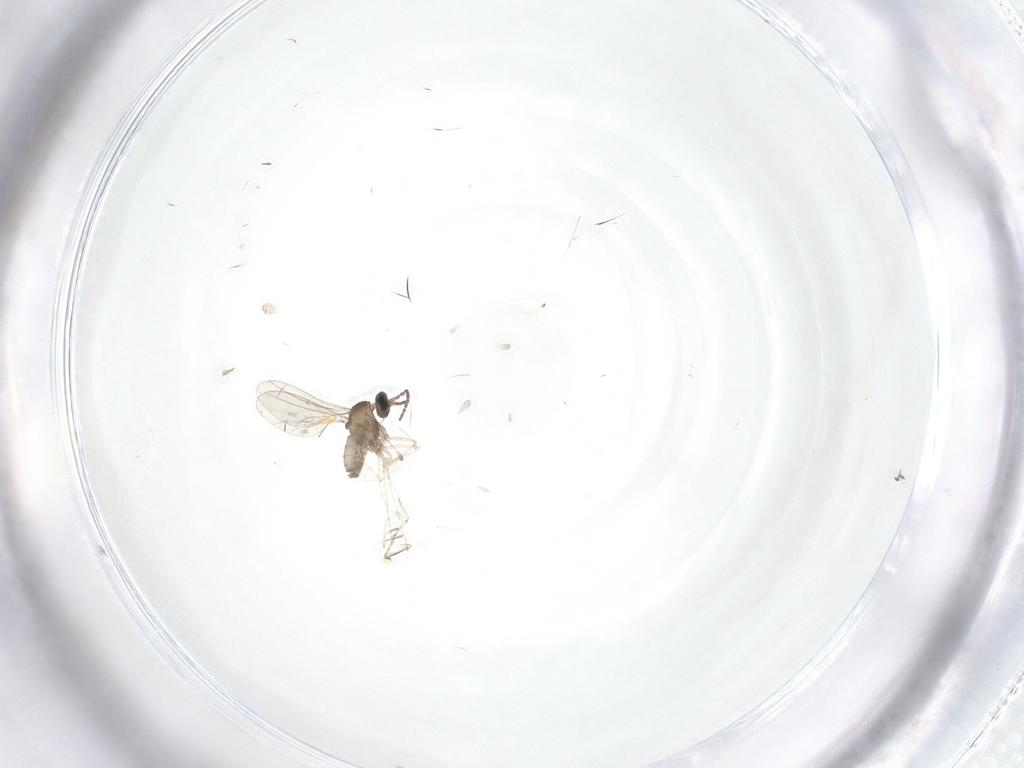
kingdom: Animalia
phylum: Arthropoda
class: Insecta
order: Diptera
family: Cecidomyiidae
